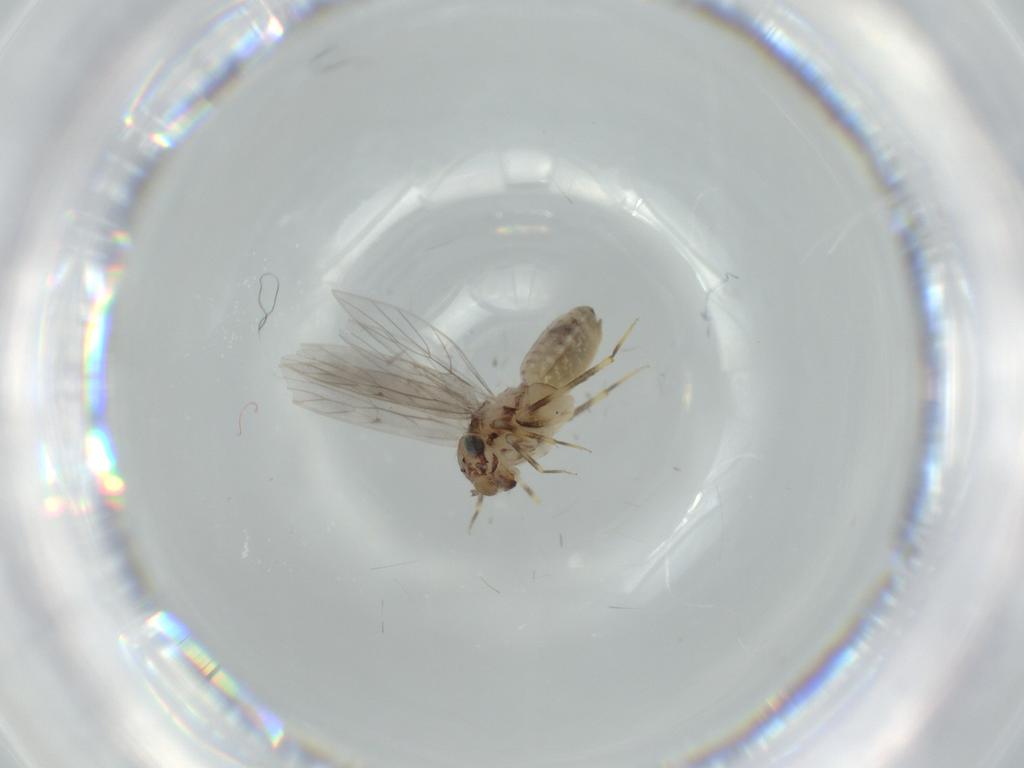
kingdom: Animalia
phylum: Arthropoda
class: Insecta
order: Psocodea
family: Lepidopsocidae
